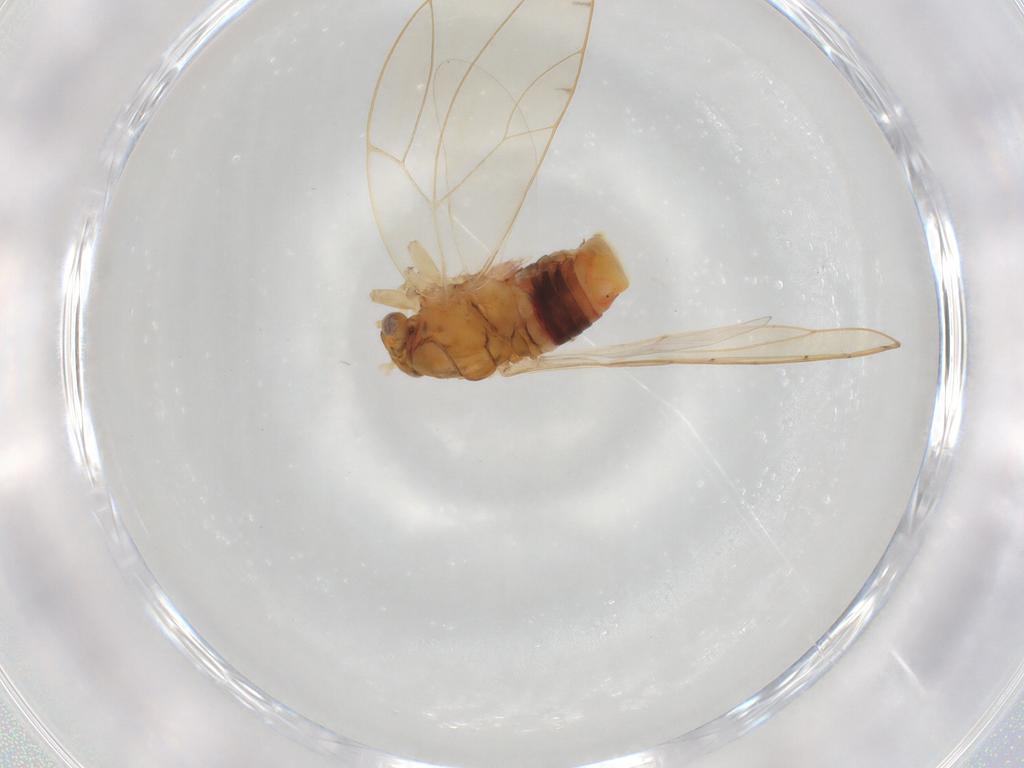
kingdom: Animalia
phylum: Arthropoda
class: Insecta
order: Hemiptera
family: Triozidae
